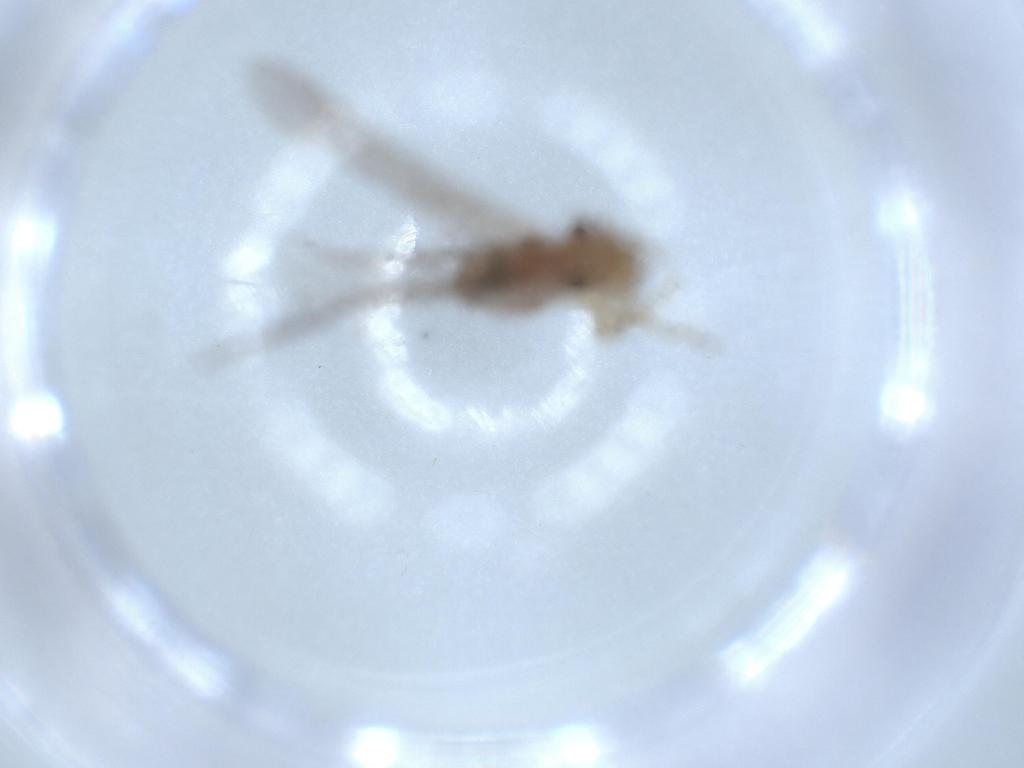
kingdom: Animalia
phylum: Arthropoda
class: Insecta
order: Psocodea
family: Cladiopsocidae
